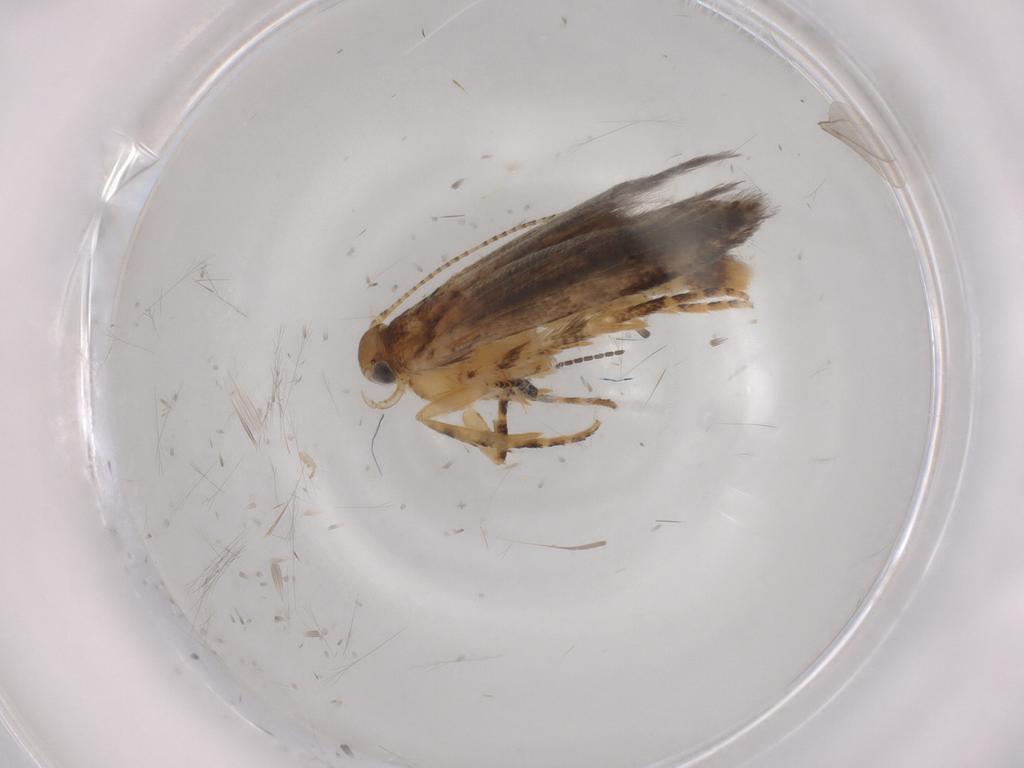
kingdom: Animalia
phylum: Arthropoda
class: Insecta
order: Lepidoptera
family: Gelechiidae
